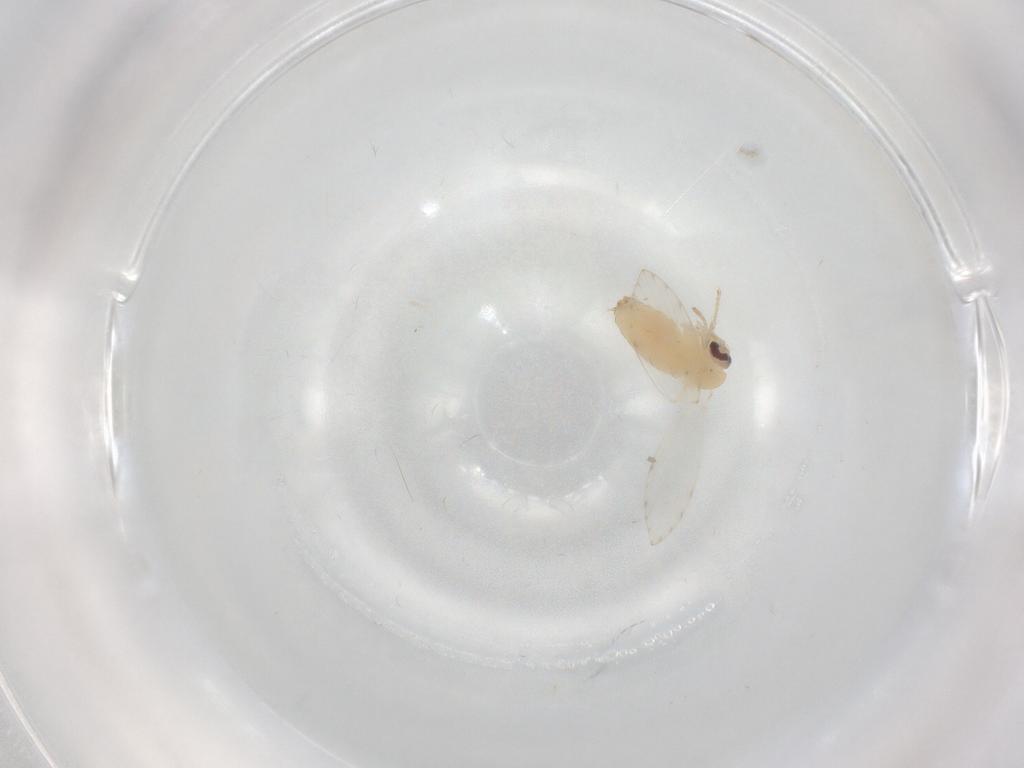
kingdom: Animalia
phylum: Arthropoda
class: Insecta
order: Diptera
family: Psychodidae
